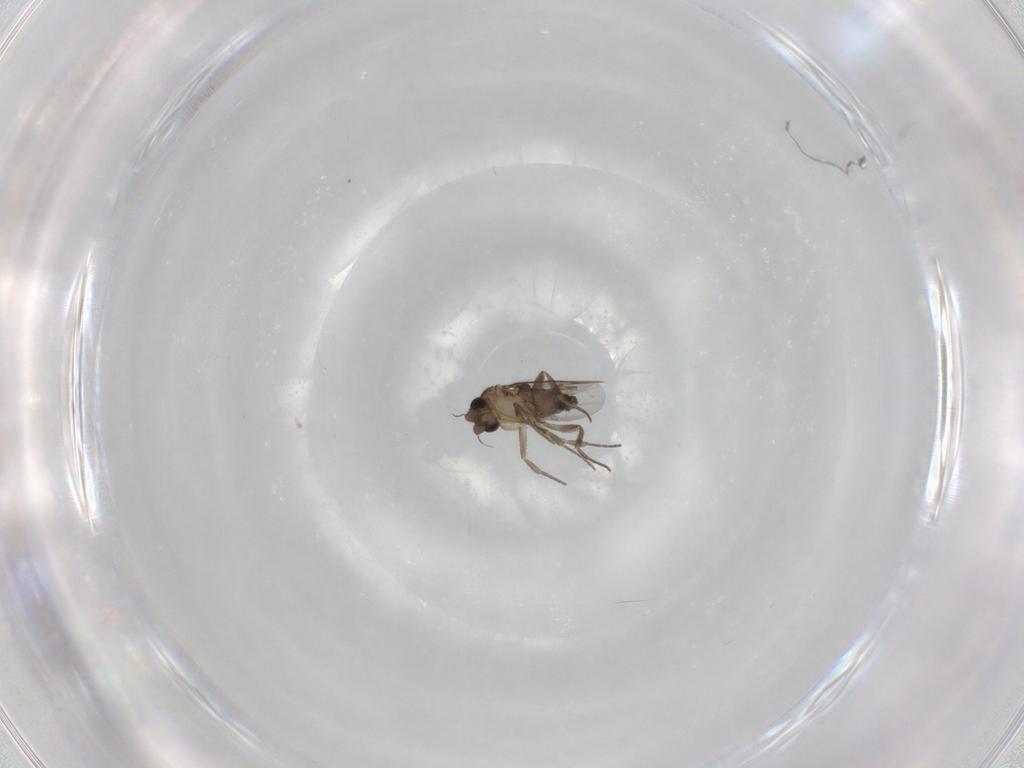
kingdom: Animalia
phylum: Arthropoda
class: Insecta
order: Diptera
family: Cecidomyiidae
